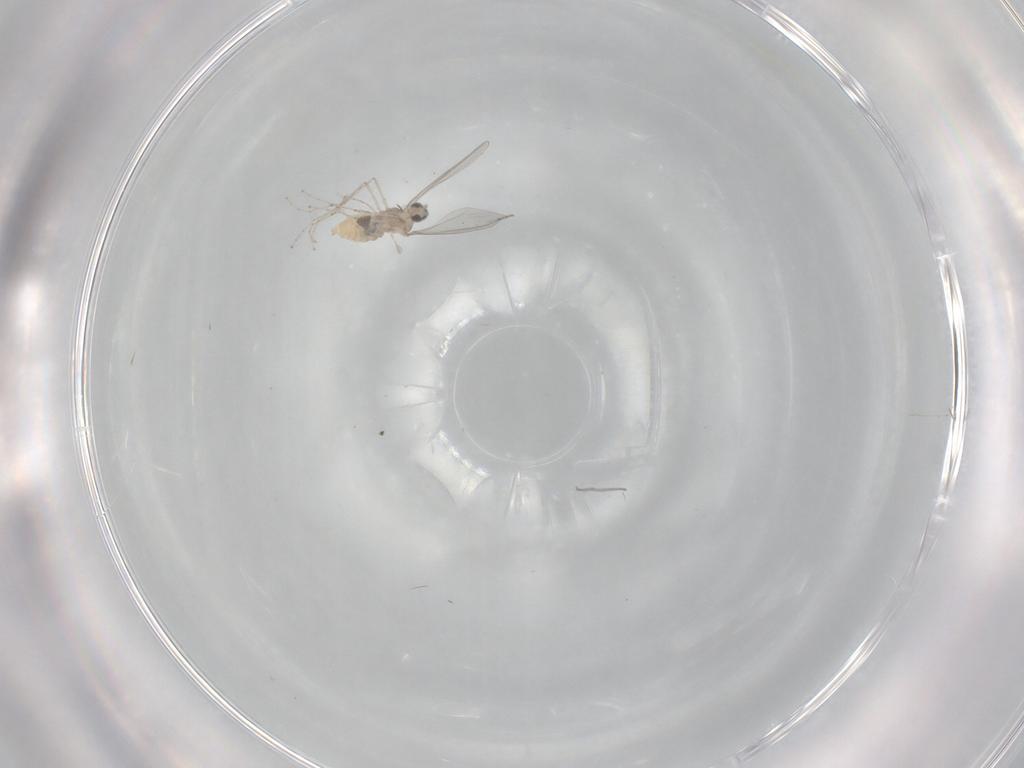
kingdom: Animalia
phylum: Arthropoda
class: Insecta
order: Diptera
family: Cecidomyiidae
